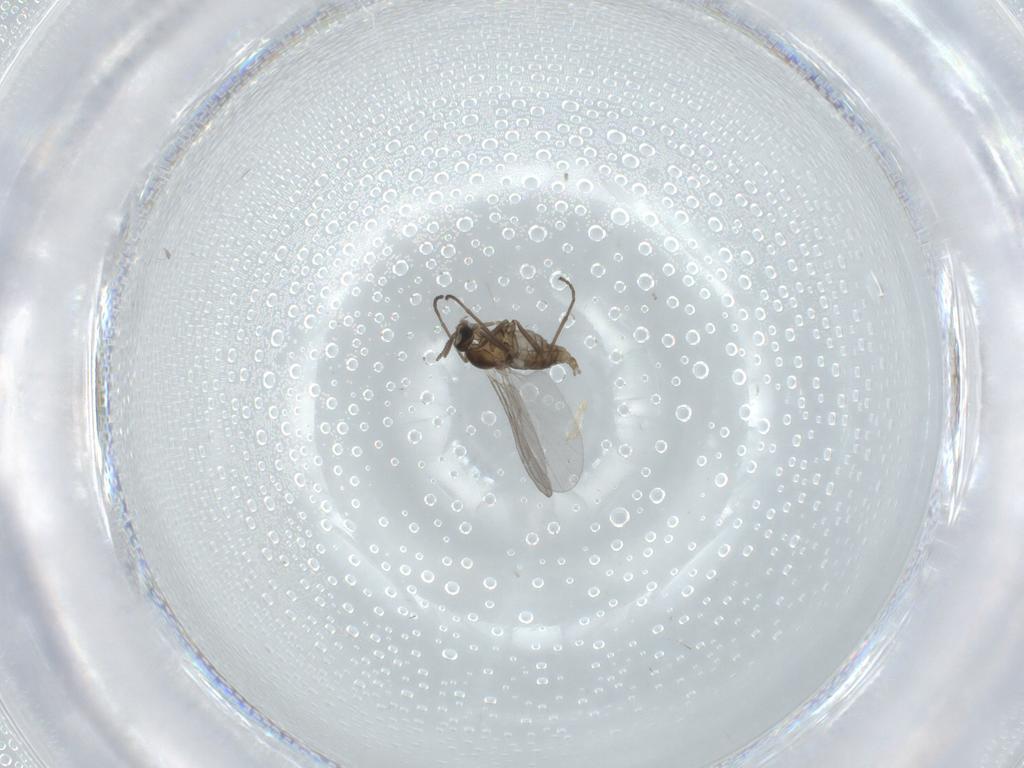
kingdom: Animalia
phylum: Arthropoda
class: Insecta
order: Diptera
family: Cecidomyiidae
